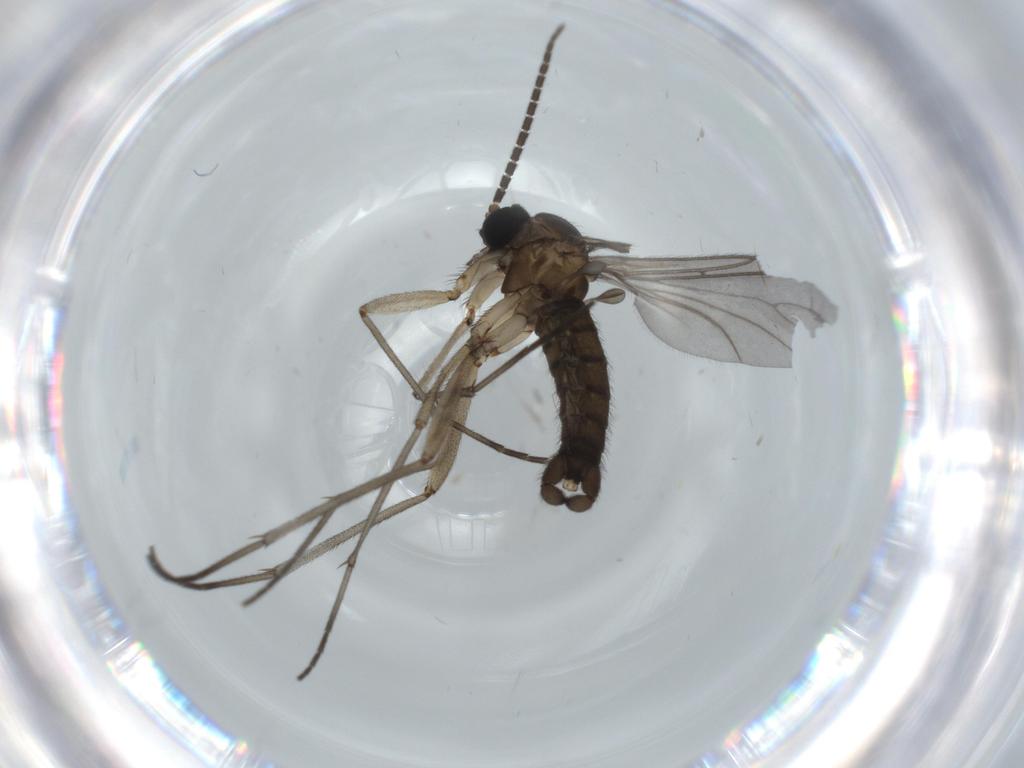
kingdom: Animalia
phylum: Arthropoda
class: Insecta
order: Diptera
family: Sciaridae
